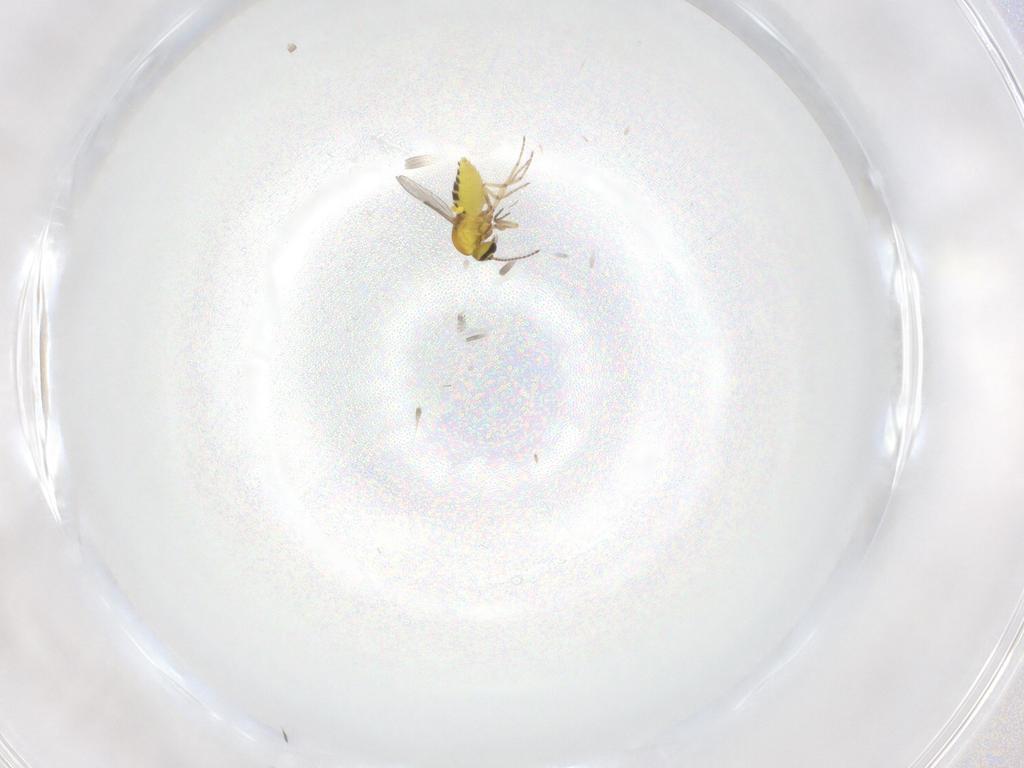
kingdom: Animalia
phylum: Arthropoda
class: Insecta
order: Diptera
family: Ceratopogonidae
